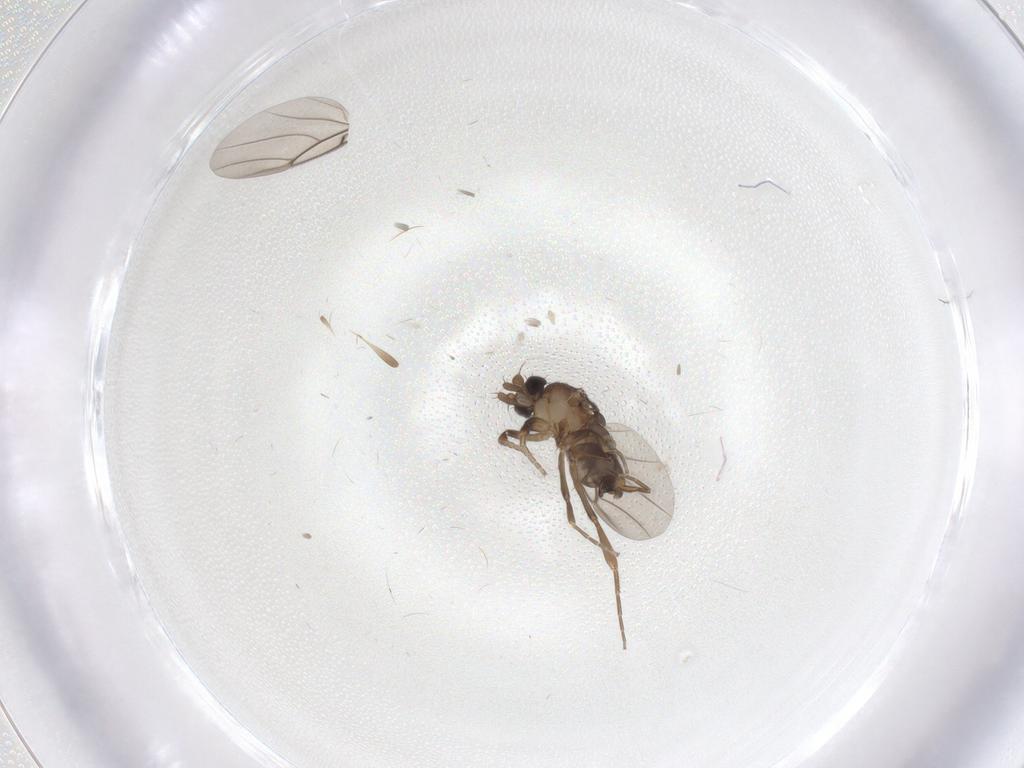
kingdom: Animalia
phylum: Arthropoda
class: Insecta
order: Diptera
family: Phoridae
